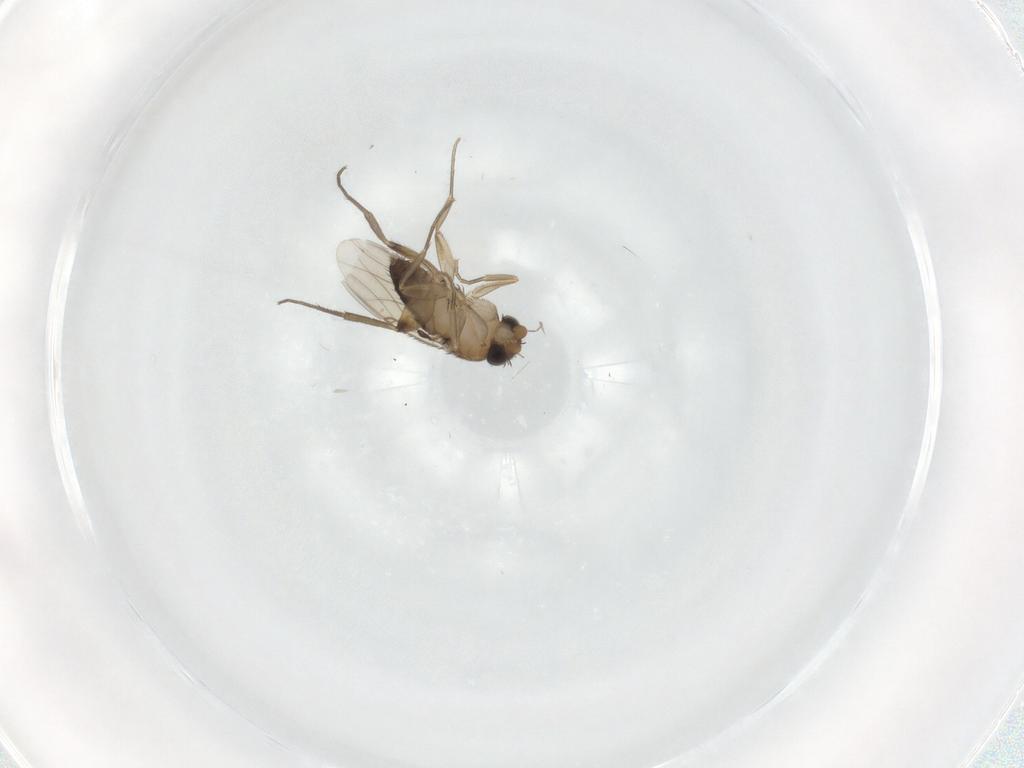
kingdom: Animalia
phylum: Arthropoda
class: Insecta
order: Diptera
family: Phoridae
